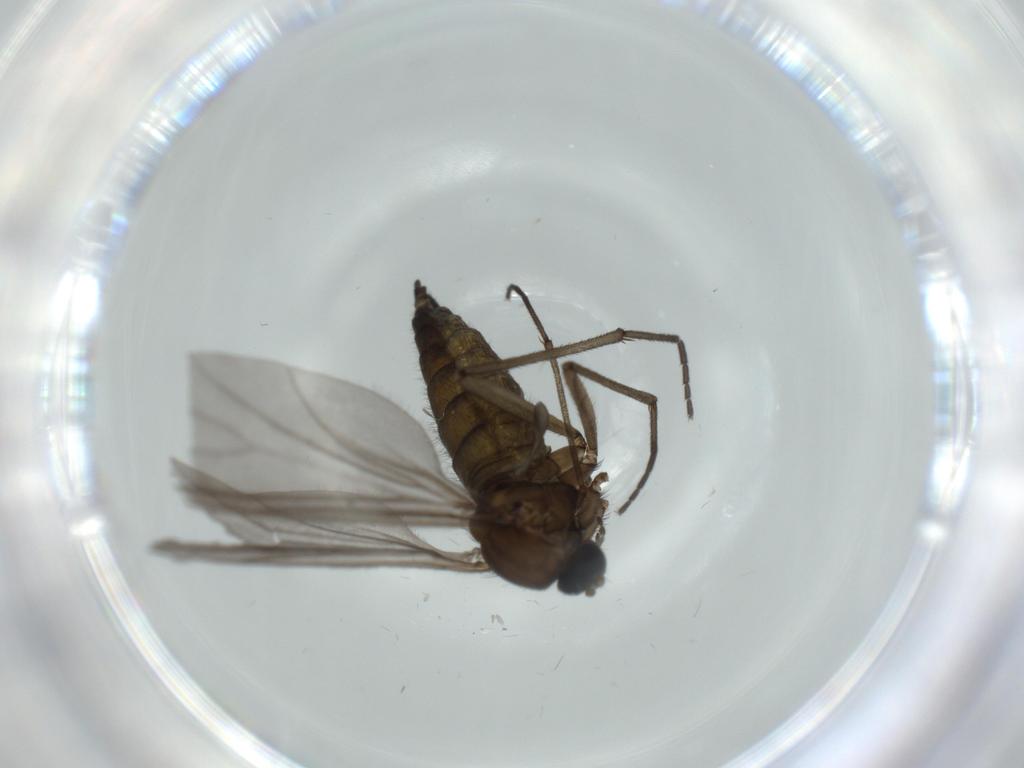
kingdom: Animalia
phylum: Arthropoda
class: Insecta
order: Diptera
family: Sciaridae
